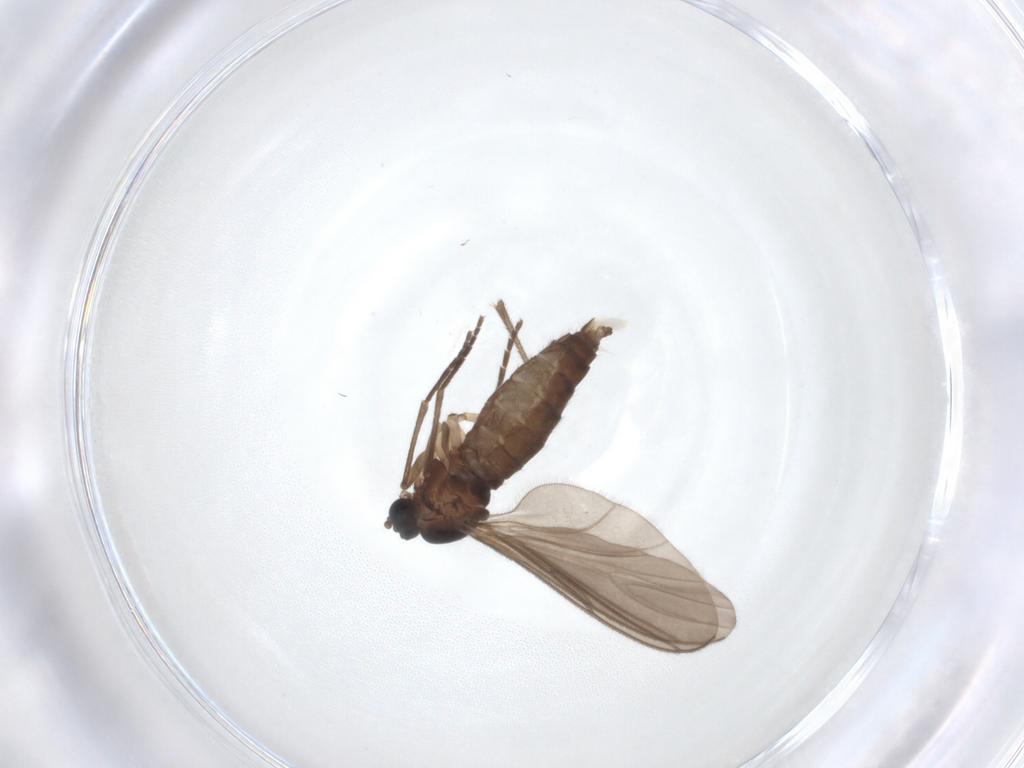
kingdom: Animalia
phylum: Arthropoda
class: Insecta
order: Diptera
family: Sciaridae
